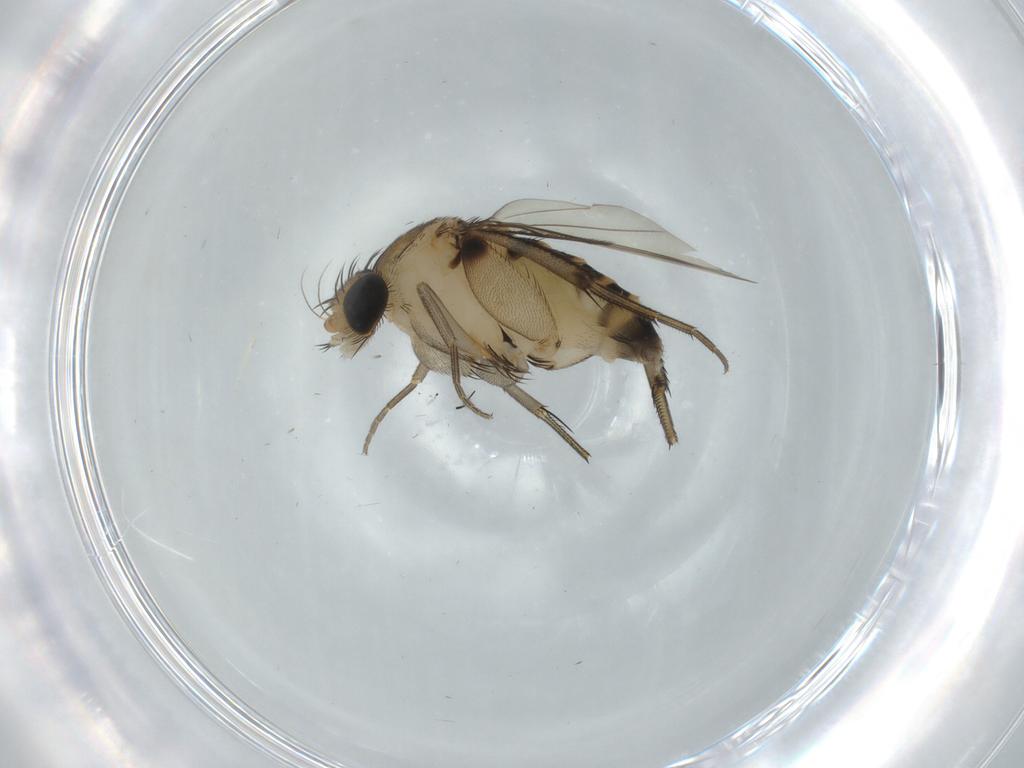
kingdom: Animalia
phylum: Arthropoda
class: Insecta
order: Diptera
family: Phoridae
